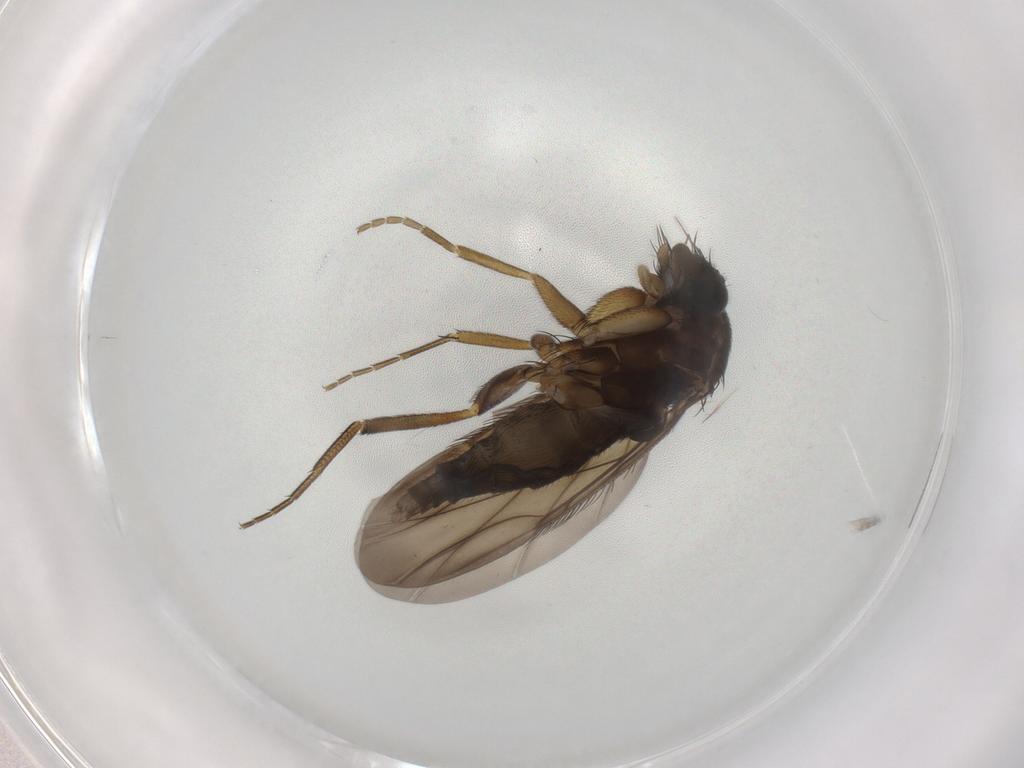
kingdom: Animalia
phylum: Arthropoda
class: Insecta
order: Diptera
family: Phoridae
